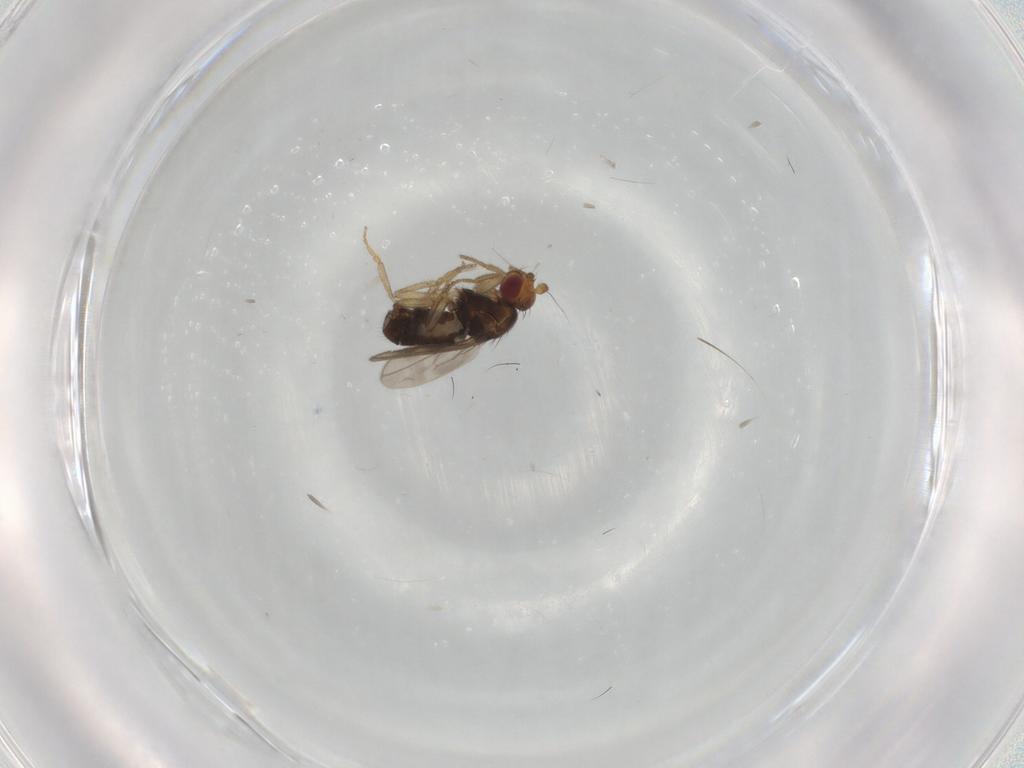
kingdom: Animalia
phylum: Arthropoda
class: Insecta
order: Diptera
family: Sphaeroceridae
